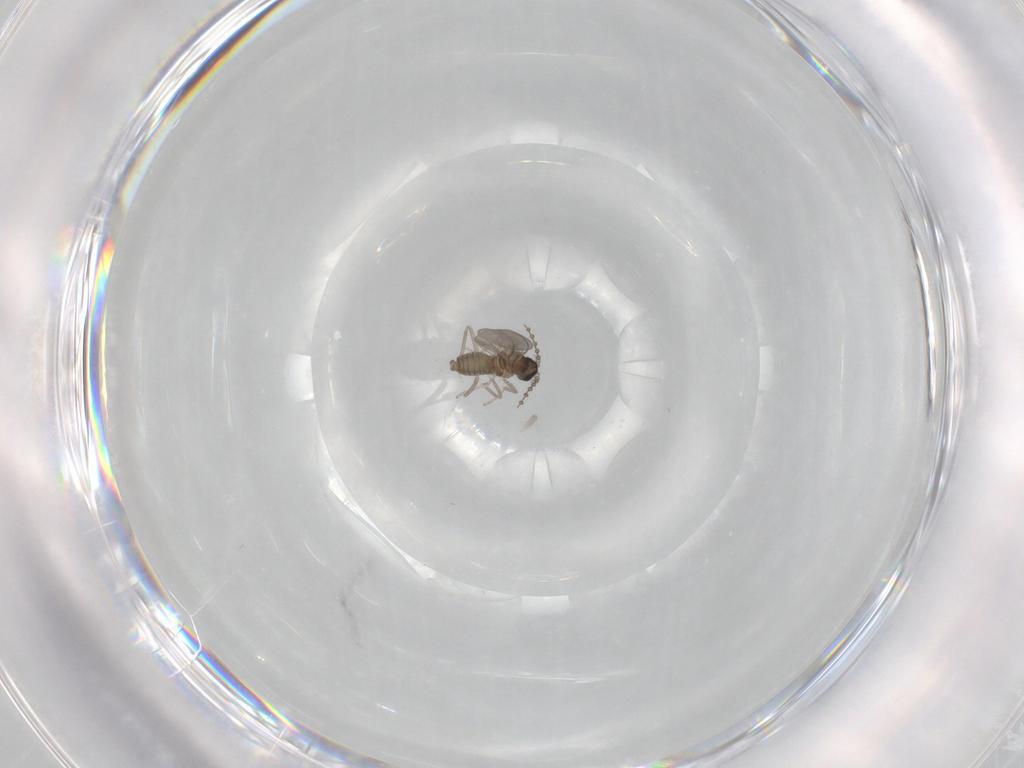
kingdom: Animalia
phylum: Arthropoda
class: Insecta
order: Diptera
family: Cecidomyiidae
